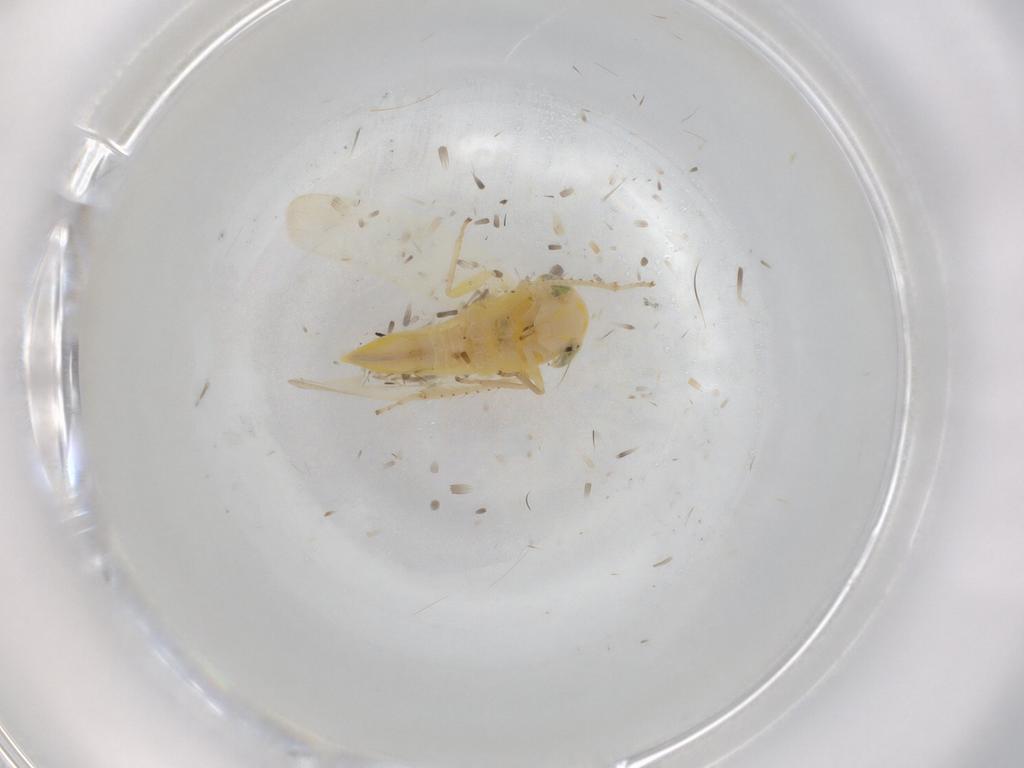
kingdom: Animalia
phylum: Arthropoda
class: Insecta
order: Hemiptera
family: Cicadellidae
